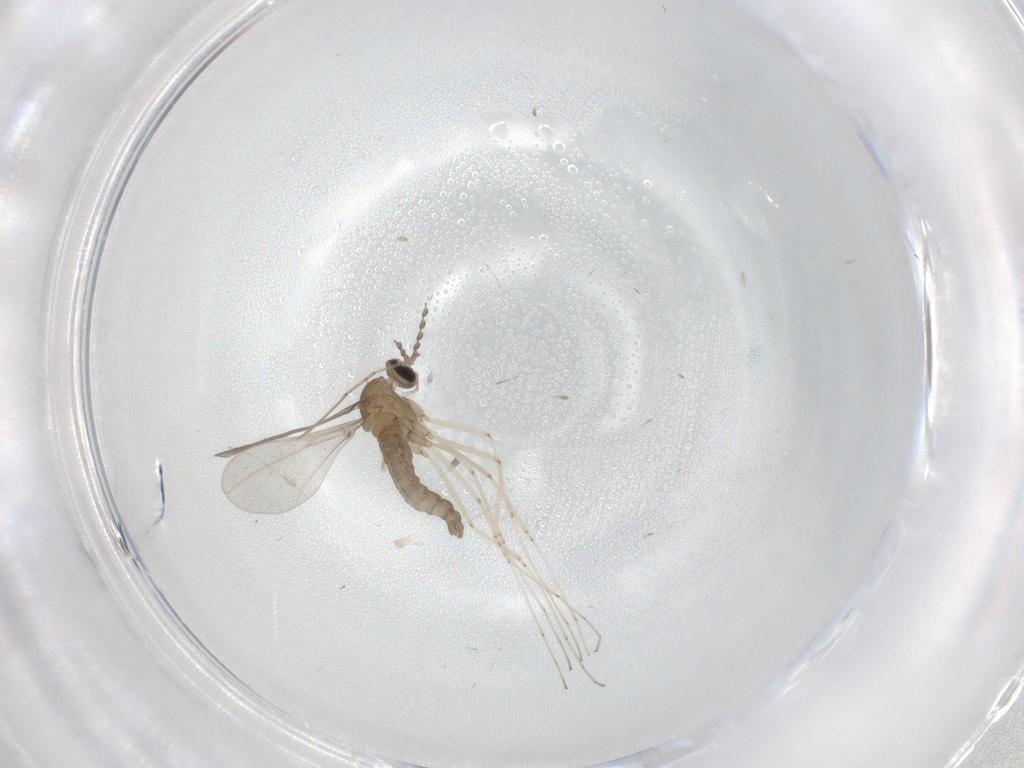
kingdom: Animalia
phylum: Arthropoda
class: Insecta
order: Diptera
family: Cecidomyiidae
